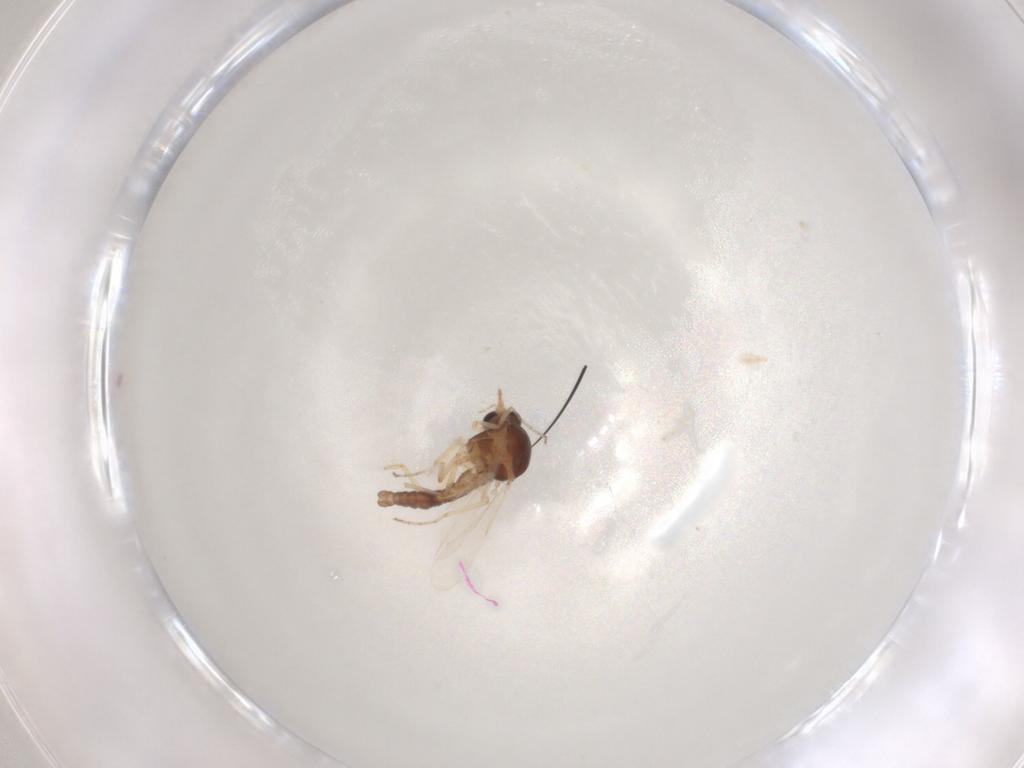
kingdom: Animalia
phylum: Arthropoda
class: Insecta
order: Diptera
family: Ceratopogonidae
